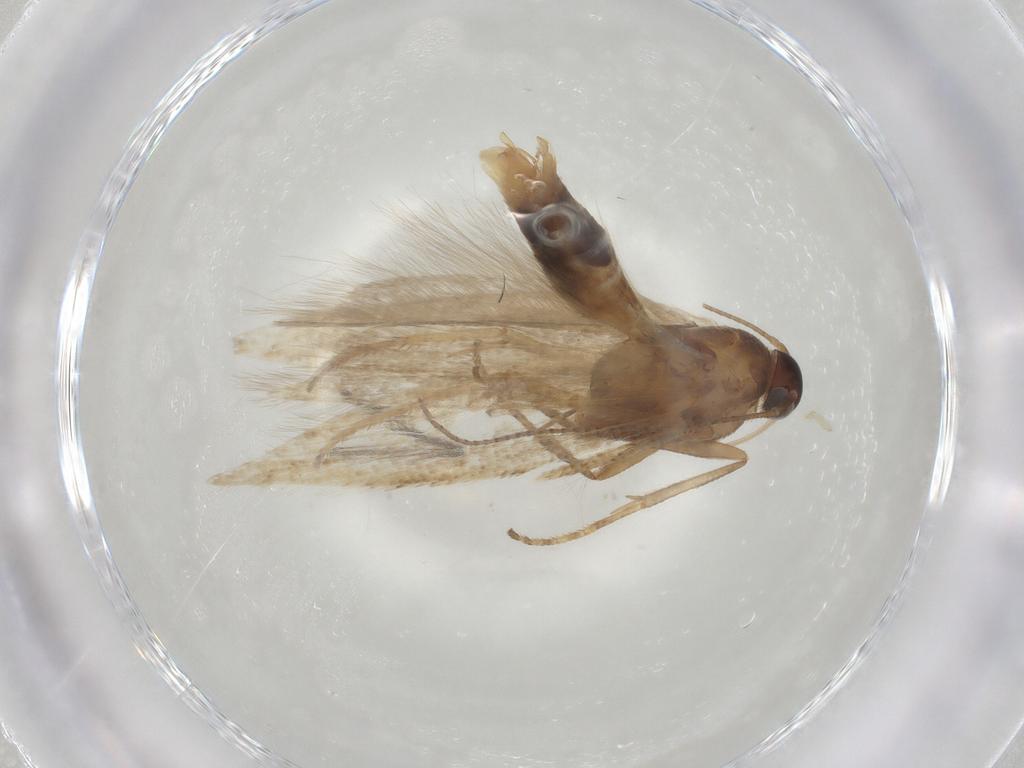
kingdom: Animalia
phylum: Arthropoda
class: Insecta
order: Lepidoptera
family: Gelechiidae
